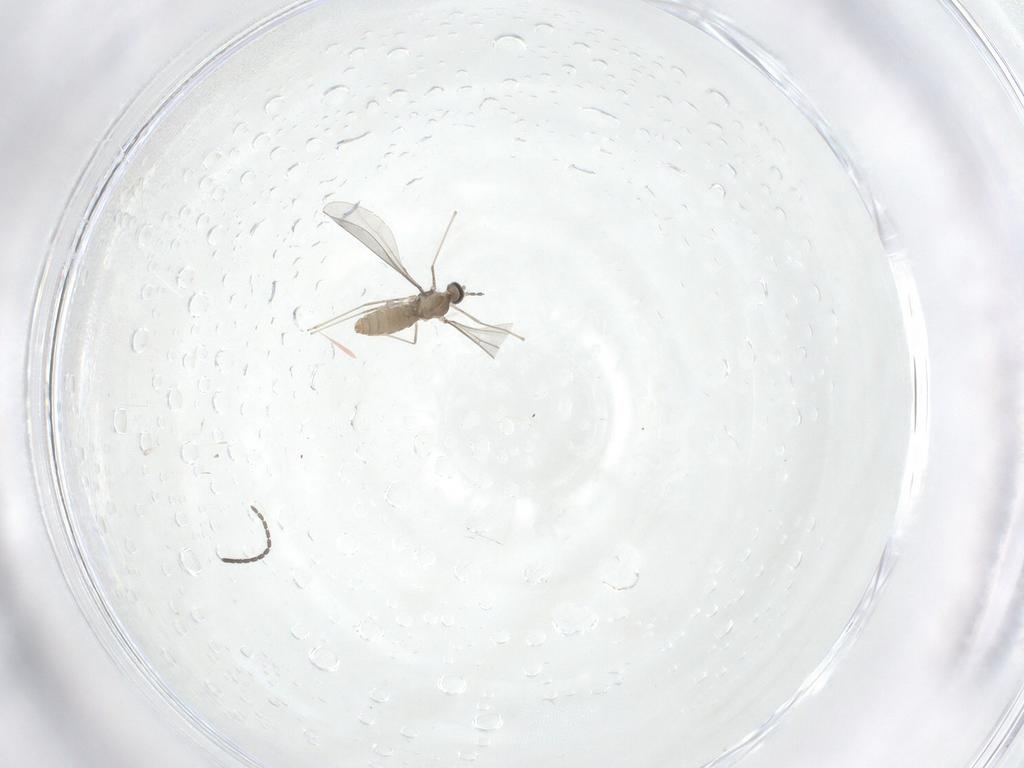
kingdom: Animalia
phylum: Arthropoda
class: Insecta
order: Diptera
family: Cecidomyiidae
